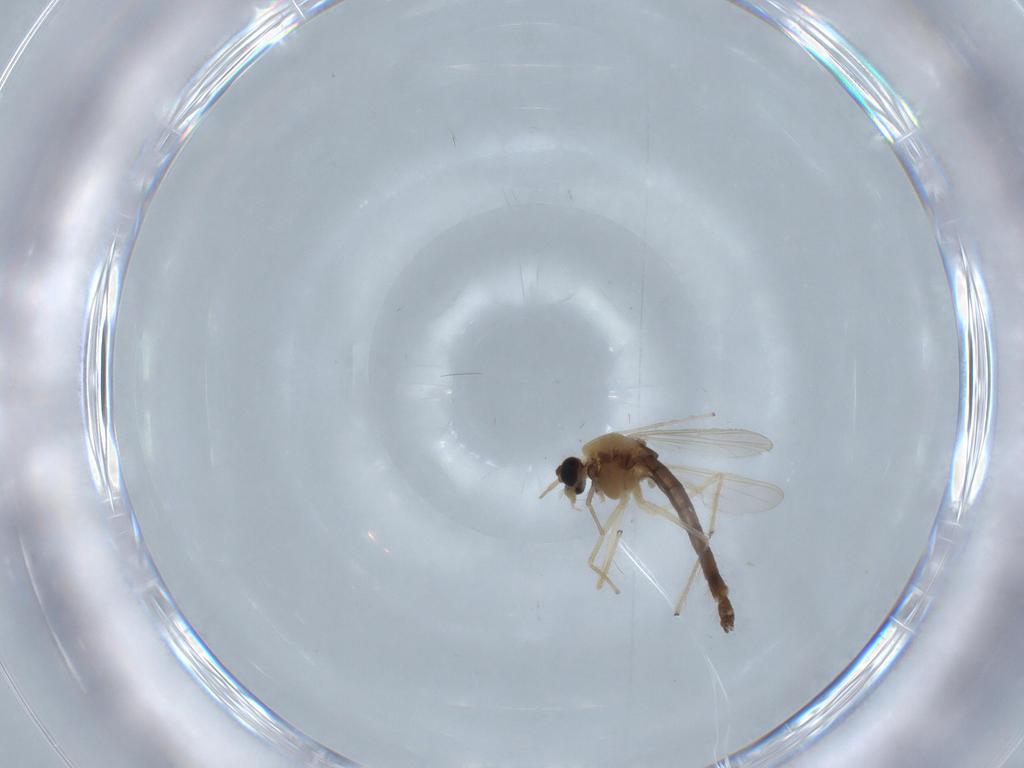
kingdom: Animalia
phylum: Arthropoda
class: Insecta
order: Diptera
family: Chironomidae
